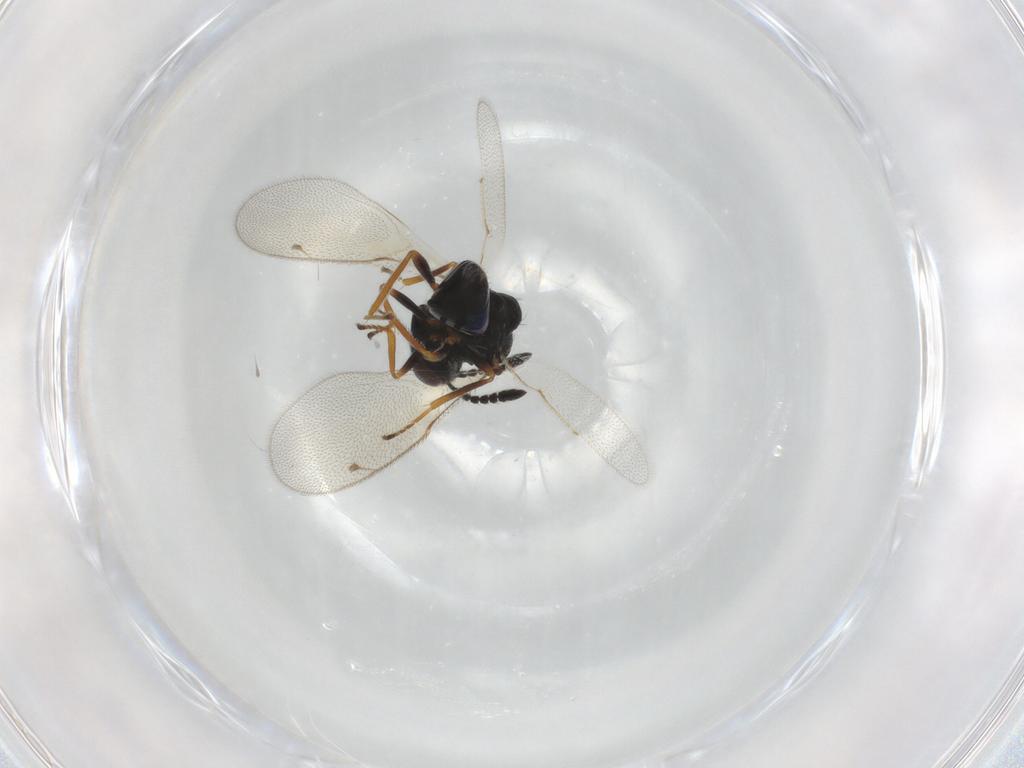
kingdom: Animalia
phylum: Arthropoda
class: Insecta
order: Hymenoptera
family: Pteromalidae
